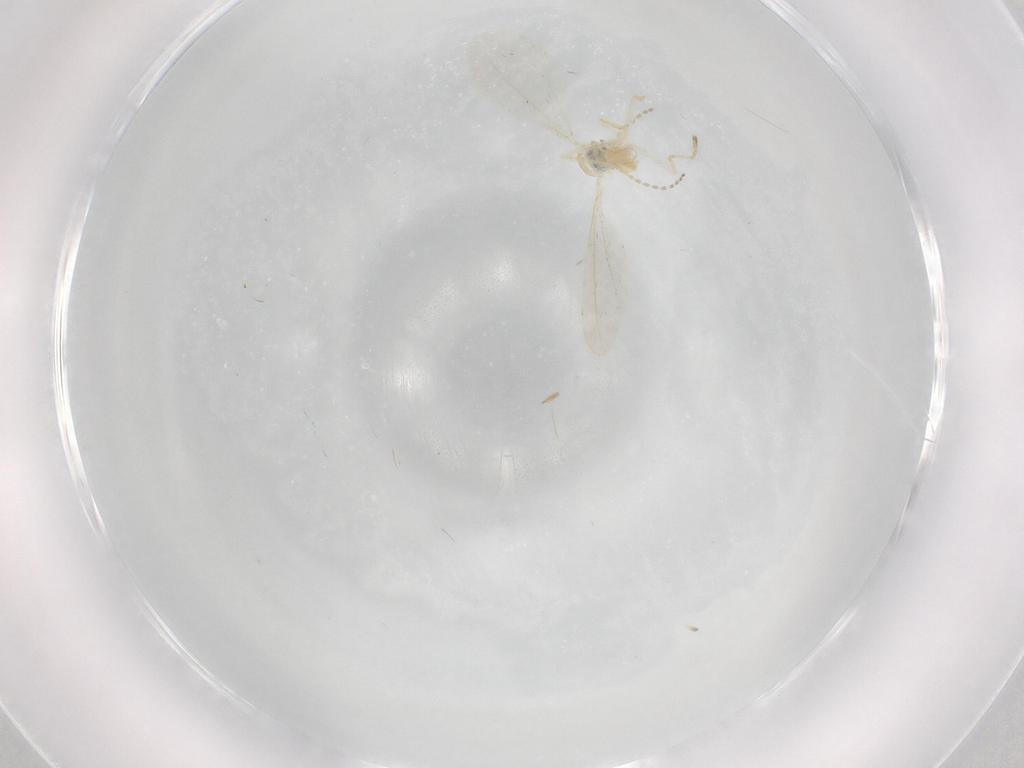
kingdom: Animalia
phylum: Arthropoda
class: Insecta
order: Diptera
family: Cecidomyiidae
